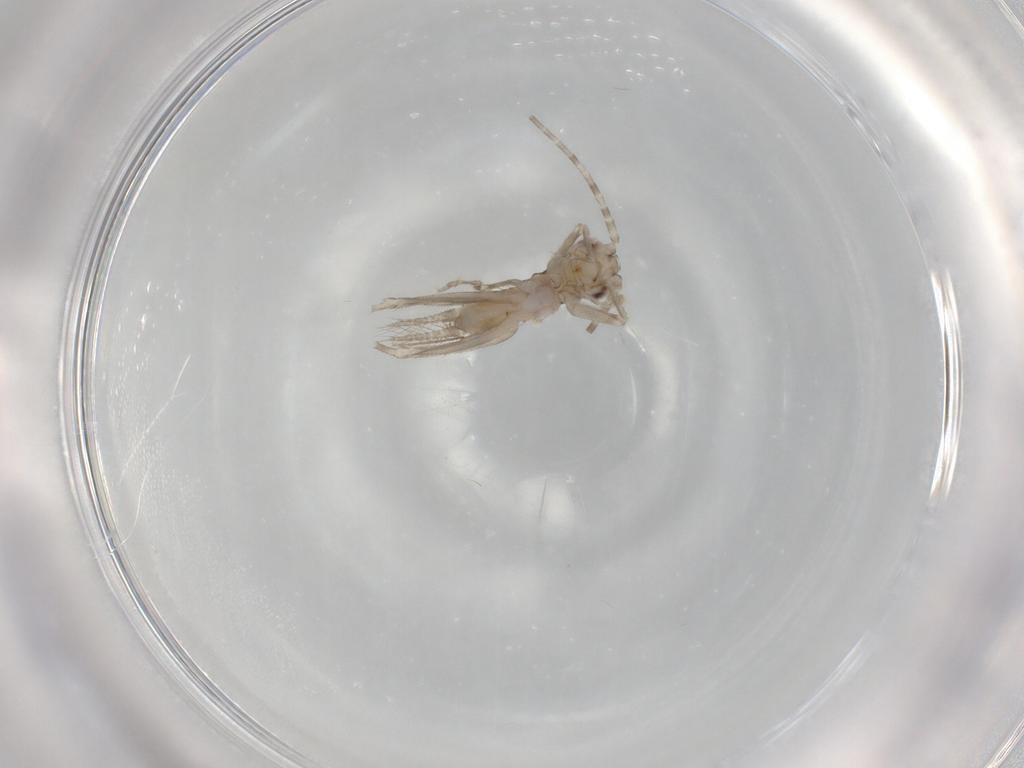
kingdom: Animalia
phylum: Arthropoda
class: Insecta
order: Orthoptera
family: Trigonidiidae
